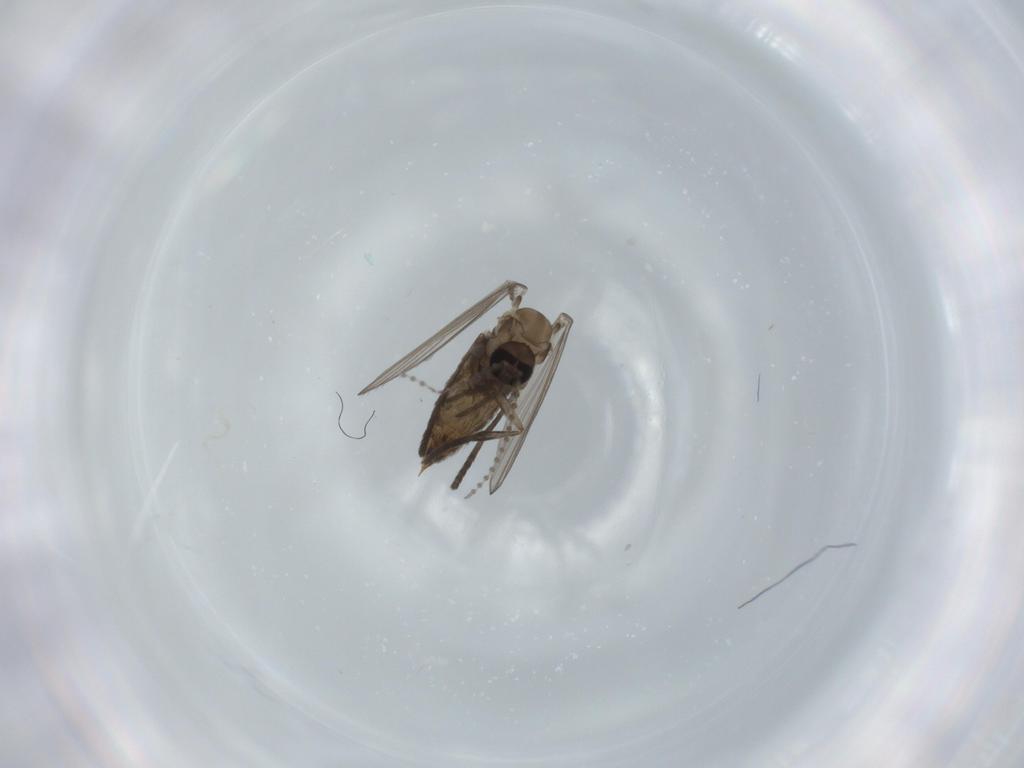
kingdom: Animalia
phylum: Arthropoda
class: Insecta
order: Diptera
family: Psychodidae
